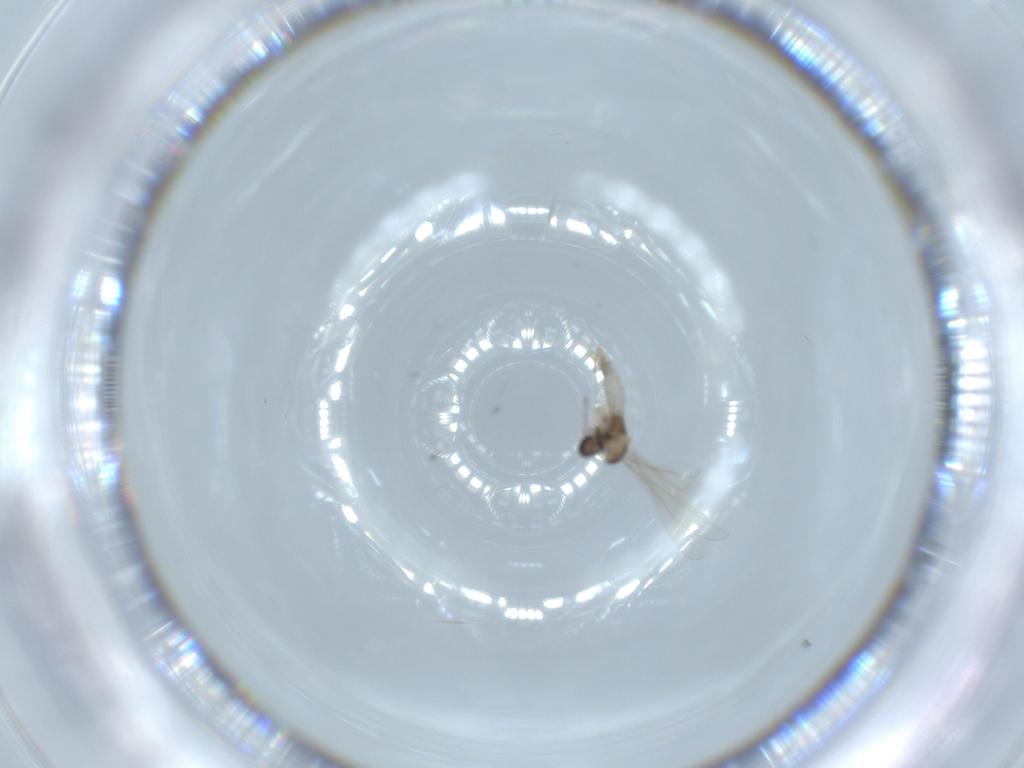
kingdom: Animalia
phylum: Arthropoda
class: Insecta
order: Diptera
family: Cecidomyiidae
